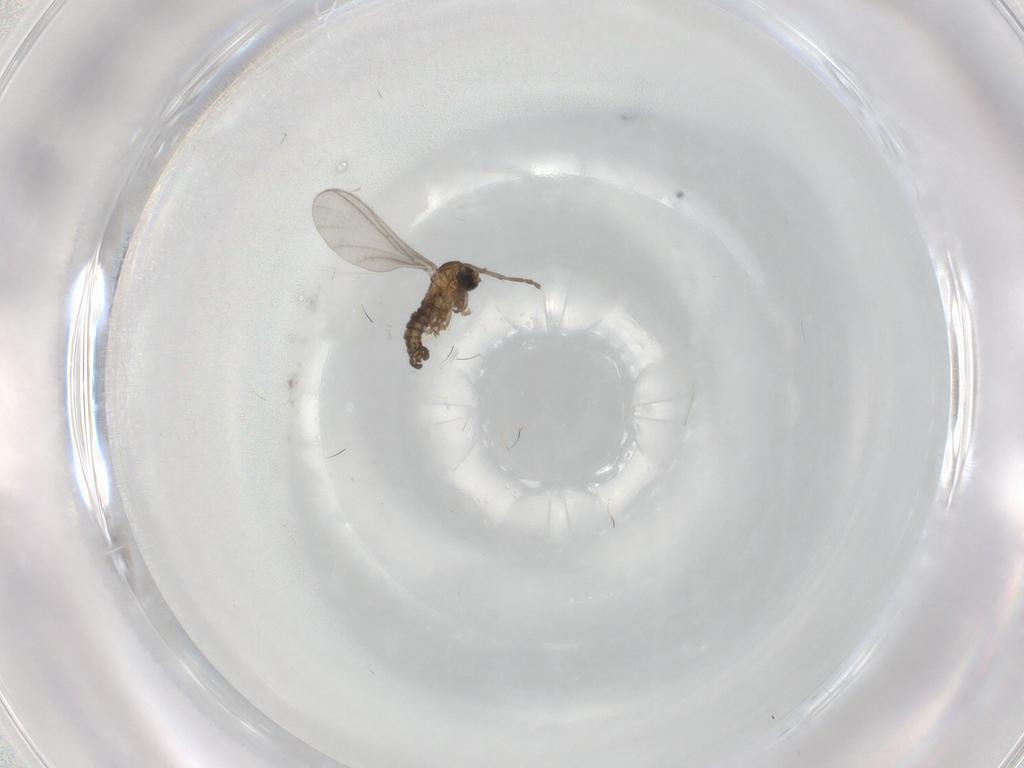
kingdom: Animalia
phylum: Arthropoda
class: Insecta
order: Diptera
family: Sciaridae
